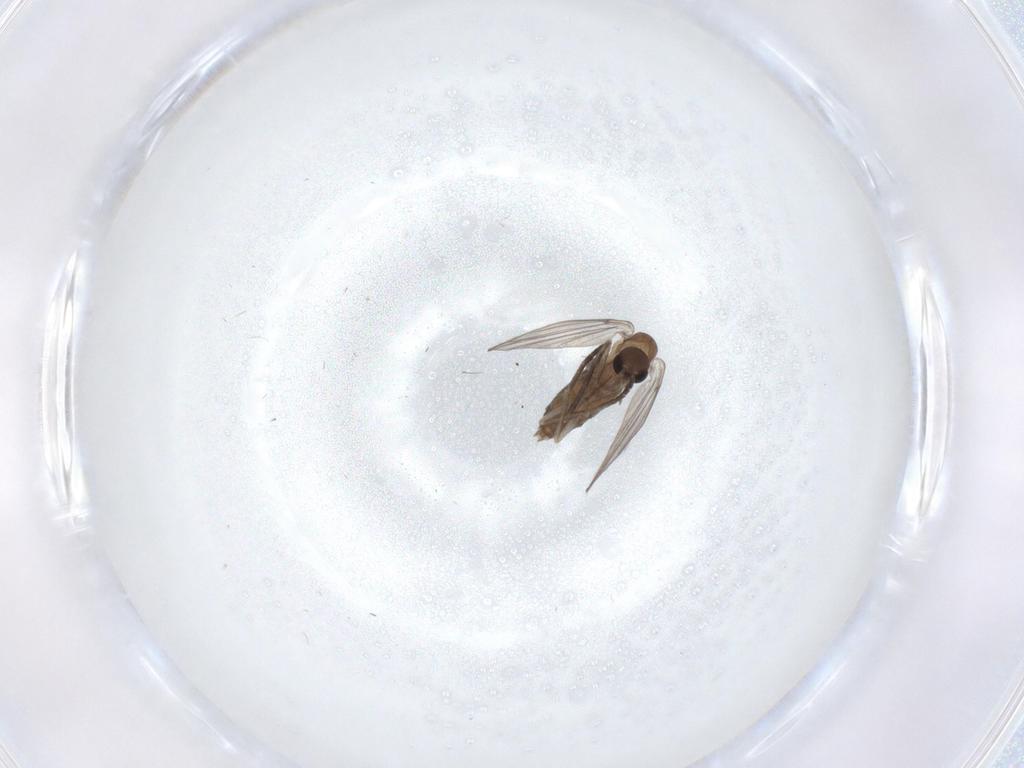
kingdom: Animalia
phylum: Arthropoda
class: Insecta
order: Diptera
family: Psychodidae
